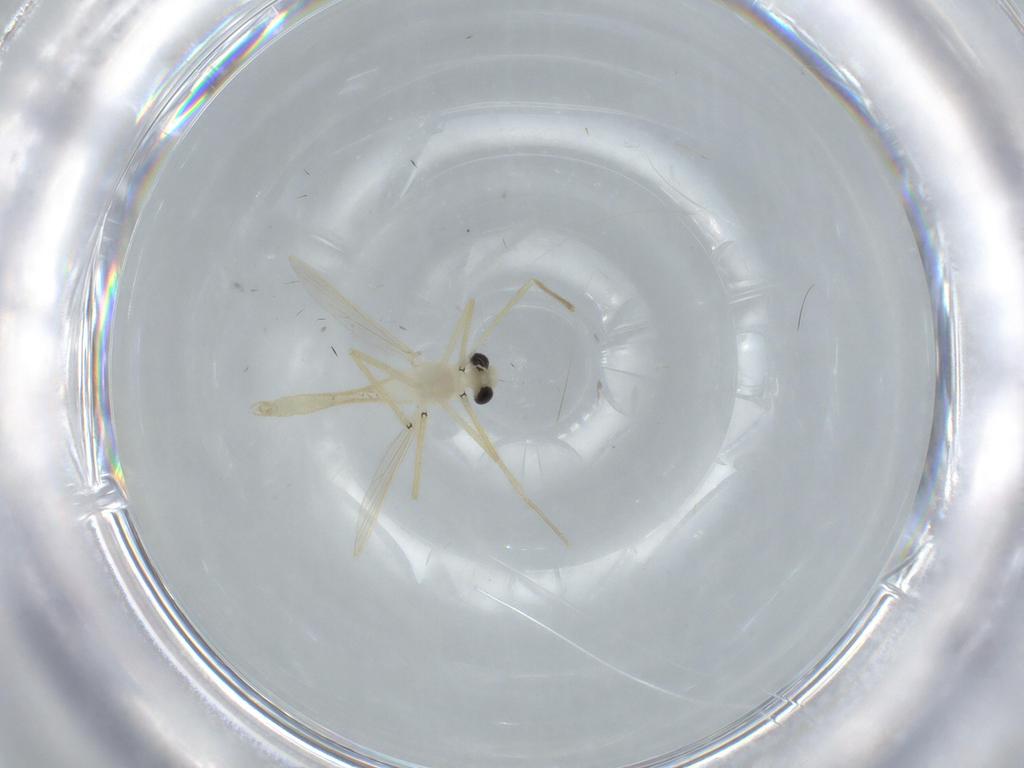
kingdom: Animalia
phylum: Arthropoda
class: Insecta
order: Diptera
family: Chironomidae
